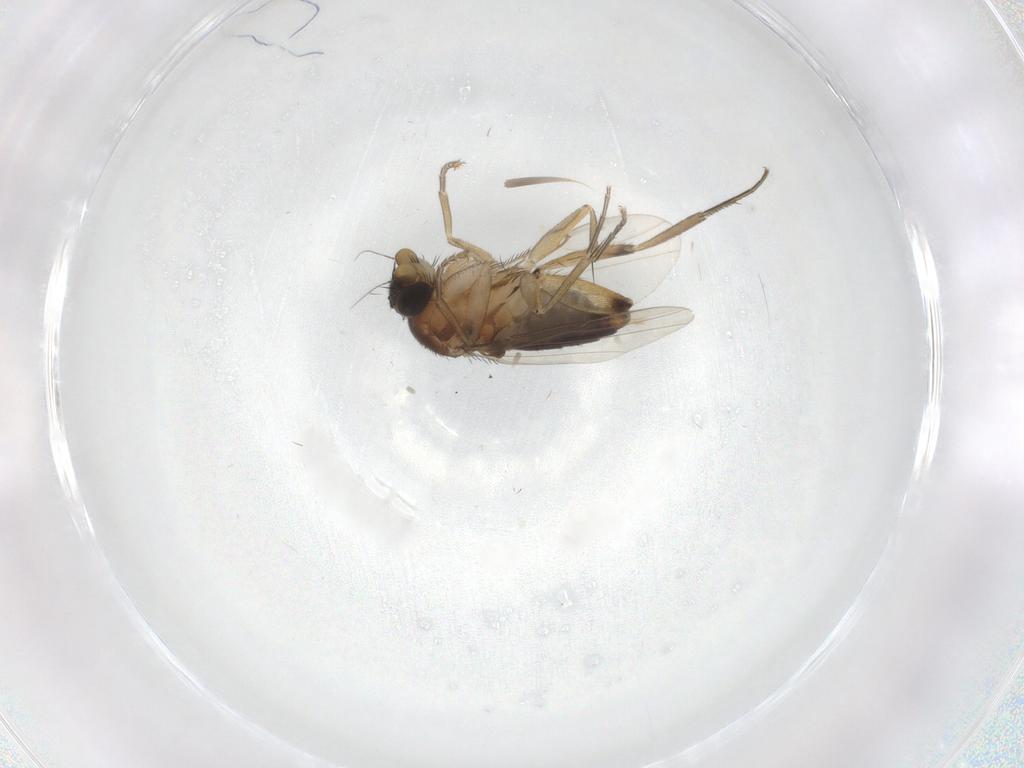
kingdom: Animalia
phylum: Arthropoda
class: Insecta
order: Diptera
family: Phoridae
